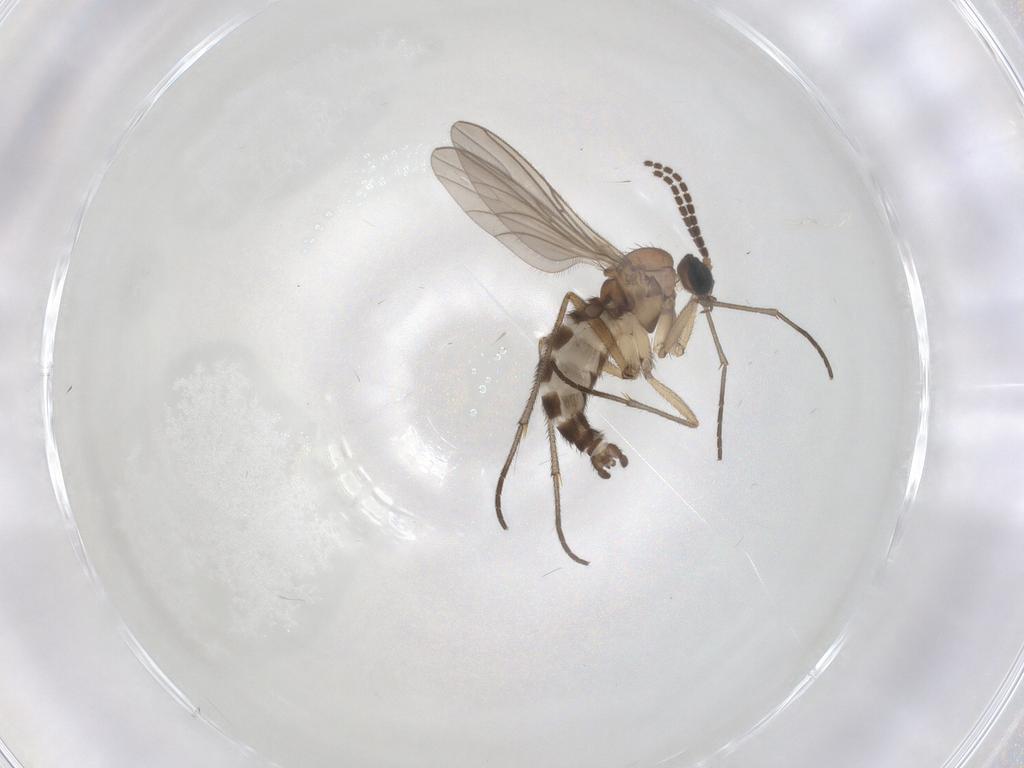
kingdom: Animalia
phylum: Arthropoda
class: Insecta
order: Diptera
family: Sciaridae
